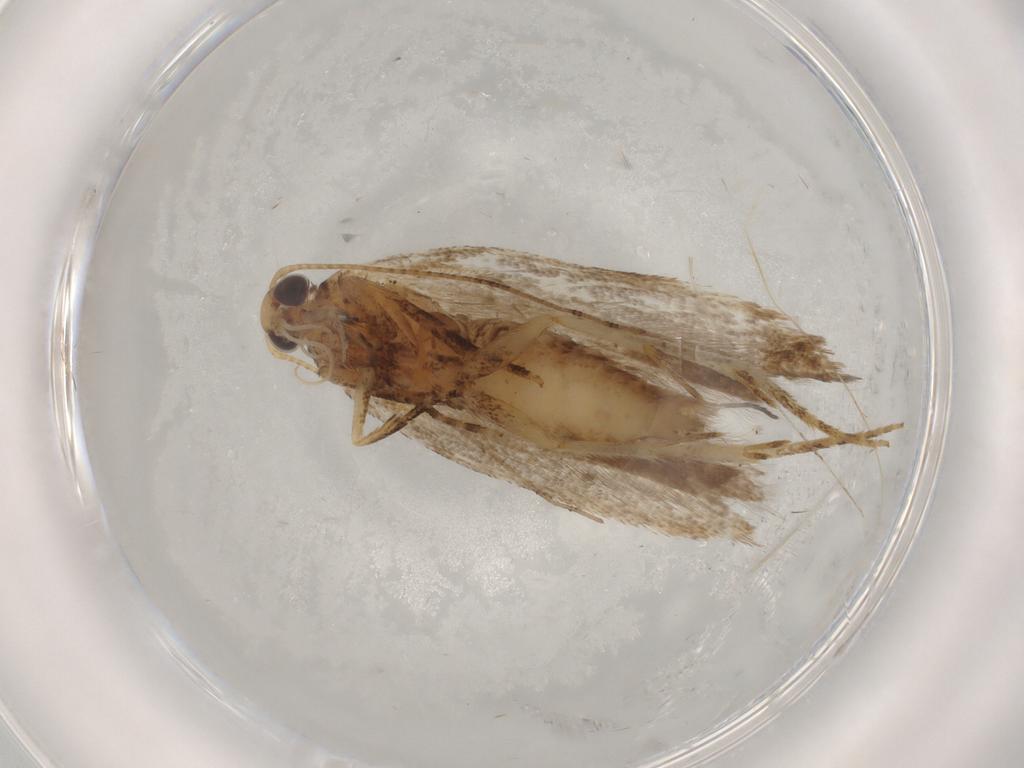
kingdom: Animalia
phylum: Arthropoda
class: Insecta
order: Lepidoptera
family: Gelechiidae
